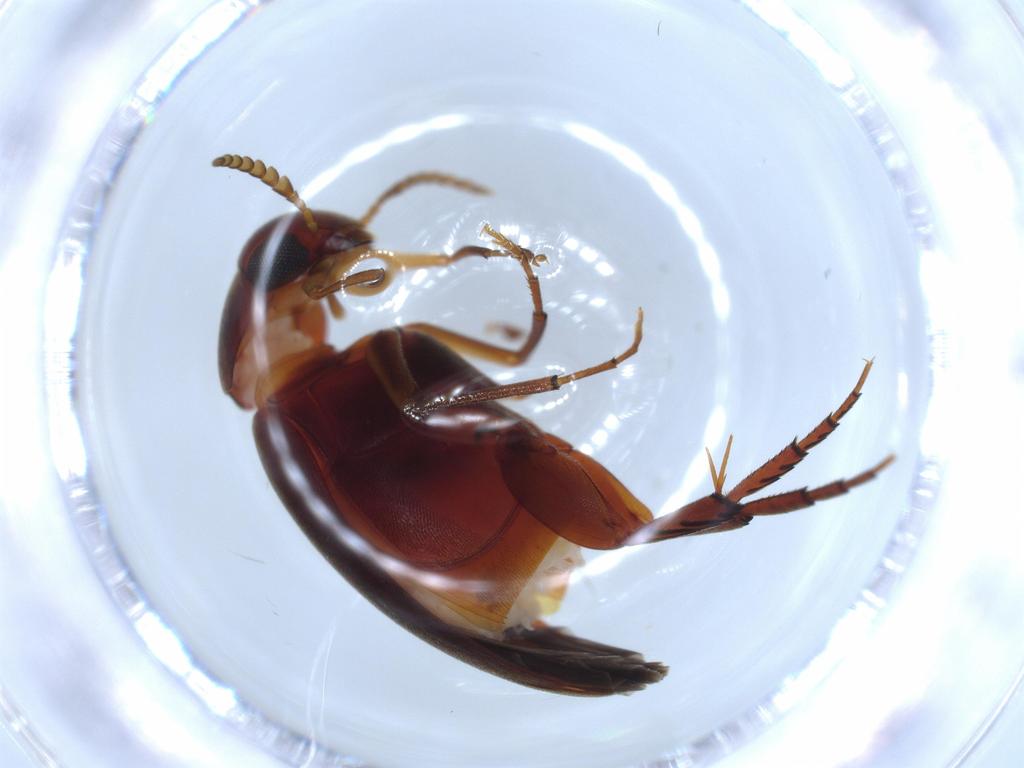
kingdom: Animalia
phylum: Arthropoda
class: Insecta
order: Coleoptera
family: Mordellidae
